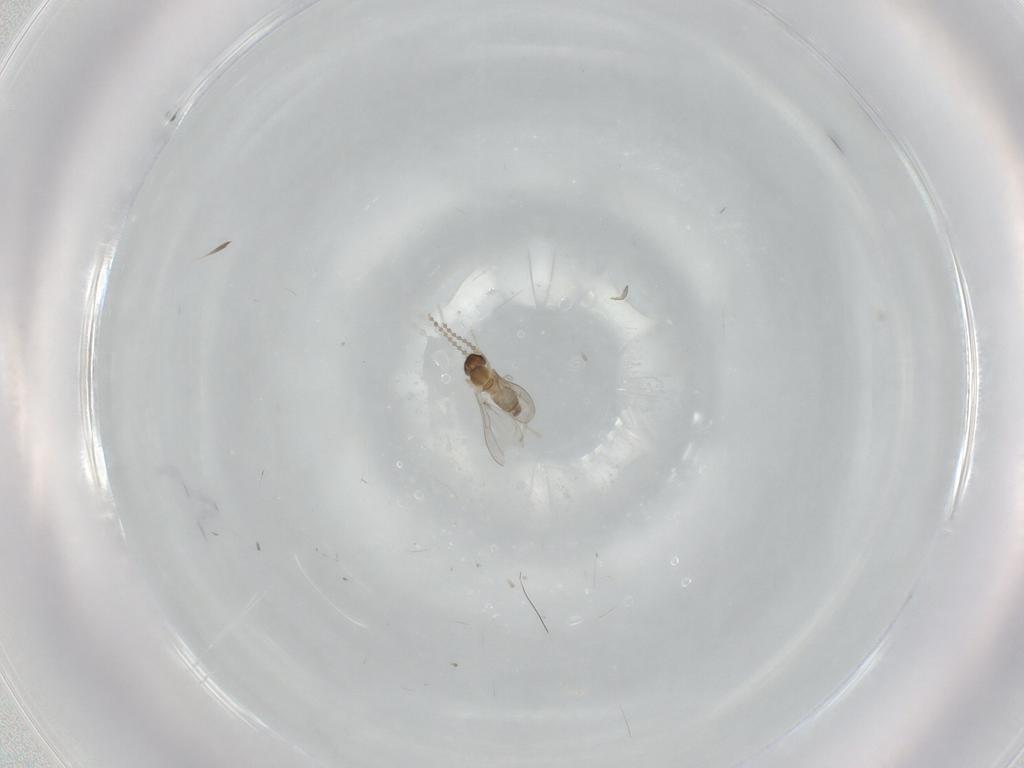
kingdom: Animalia
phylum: Arthropoda
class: Insecta
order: Diptera
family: Cecidomyiidae
